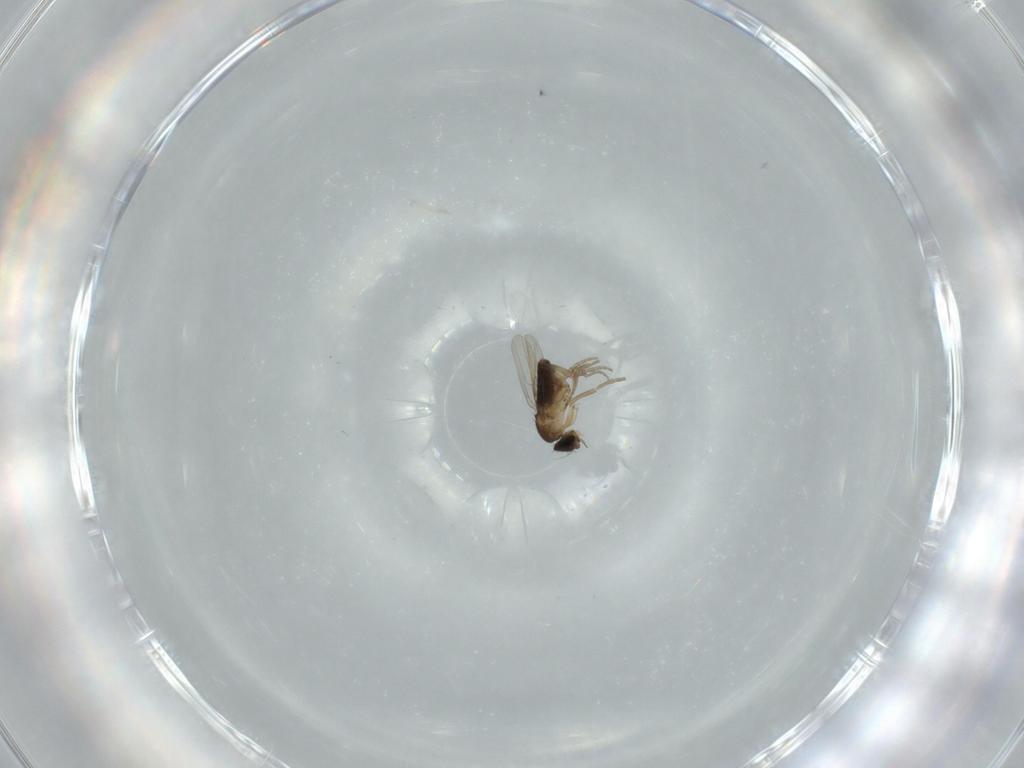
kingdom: Animalia
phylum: Arthropoda
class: Insecta
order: Diptera
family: Phoridae
